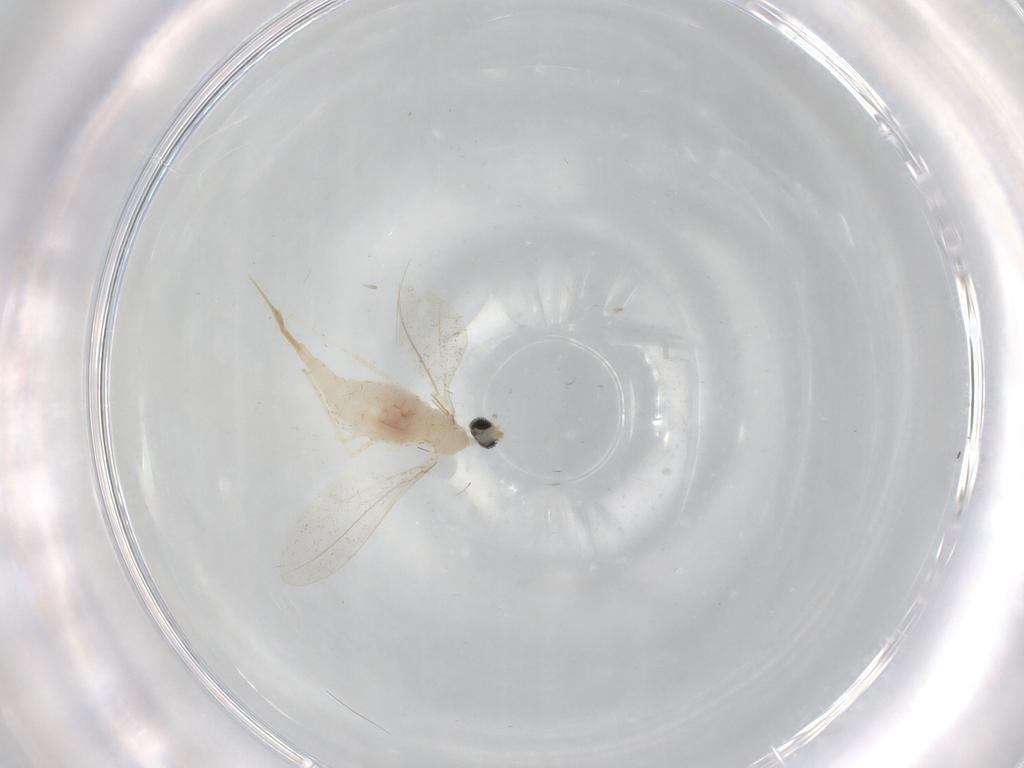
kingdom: Animalia
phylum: Arthropoda
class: Insecta
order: Diptera
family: Cecidomyiidae
